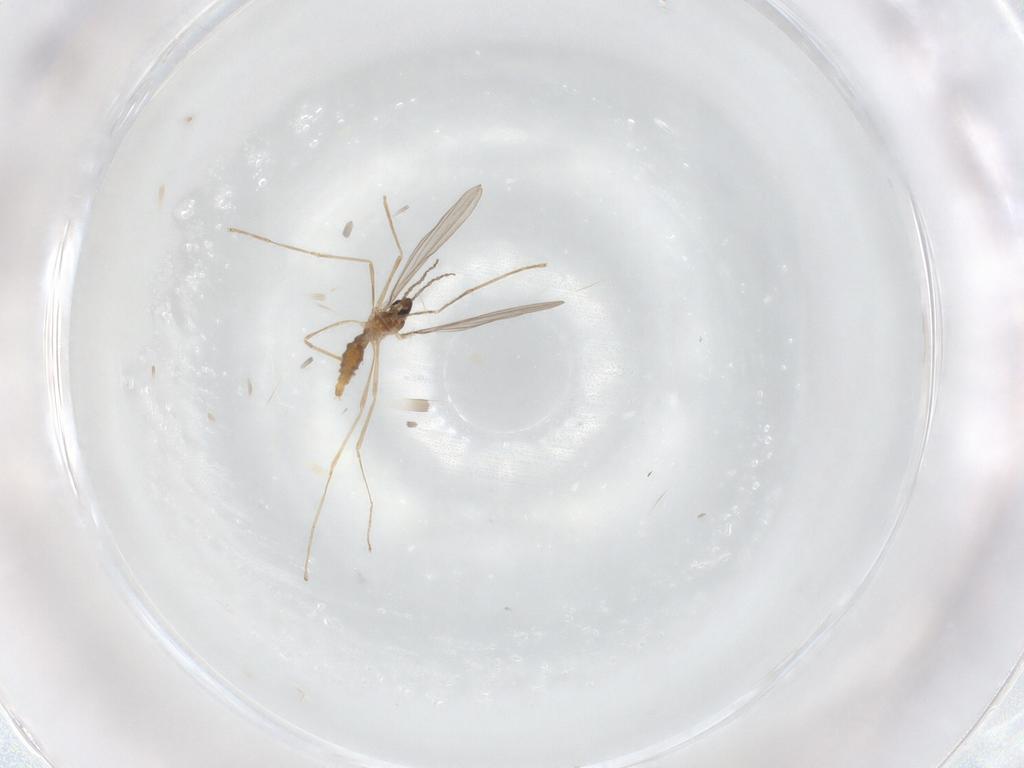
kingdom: Animalia
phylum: Arthropoda
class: Insecta
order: Diptera
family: Cecidomyiidae
